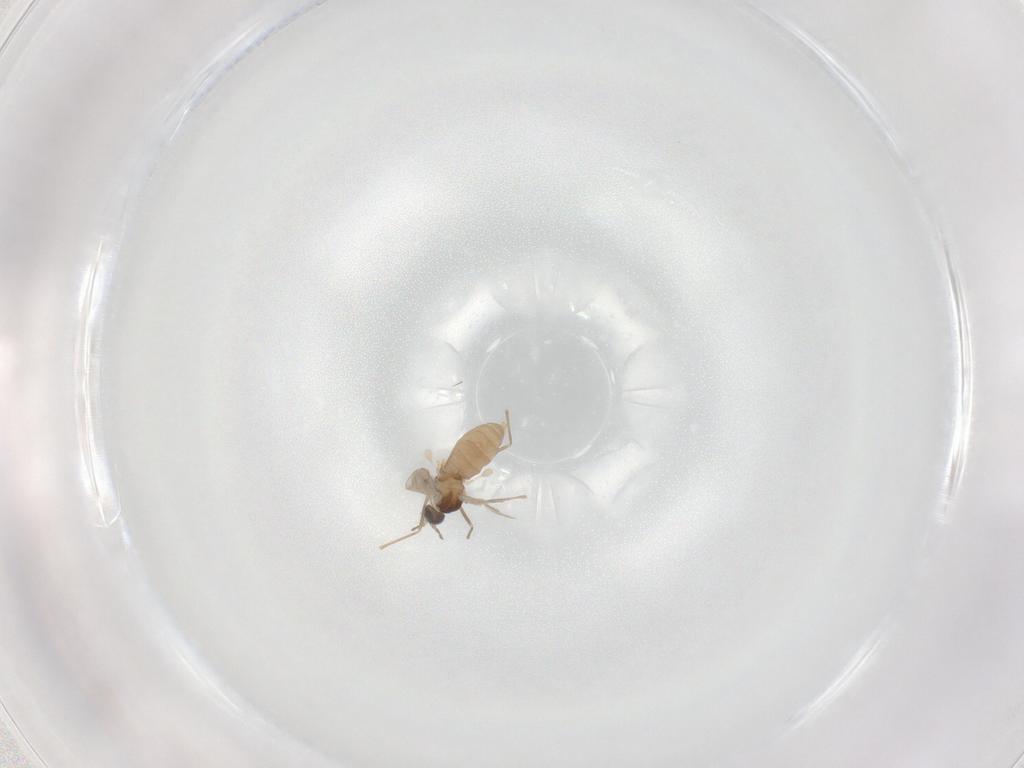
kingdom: Animalia
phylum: Arthropoda
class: Insecta
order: Diptera
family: Cecidomyiidae
